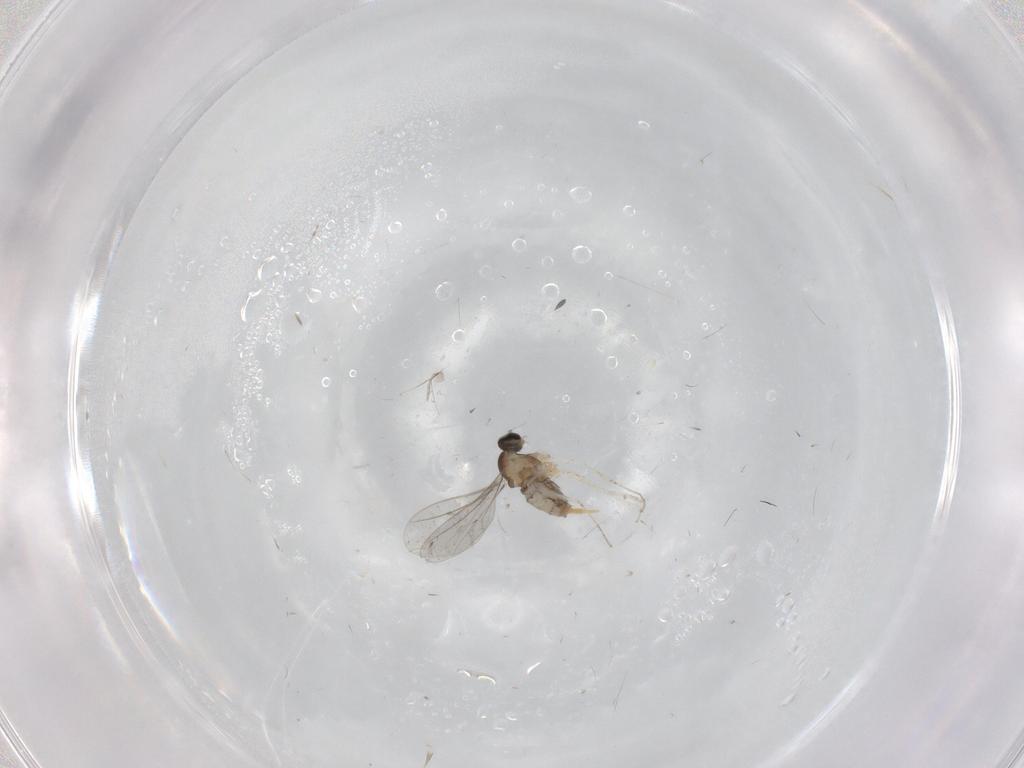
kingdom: Animalia
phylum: Arthropoda
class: Insecta
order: Diptera
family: Cecidomyiidae
